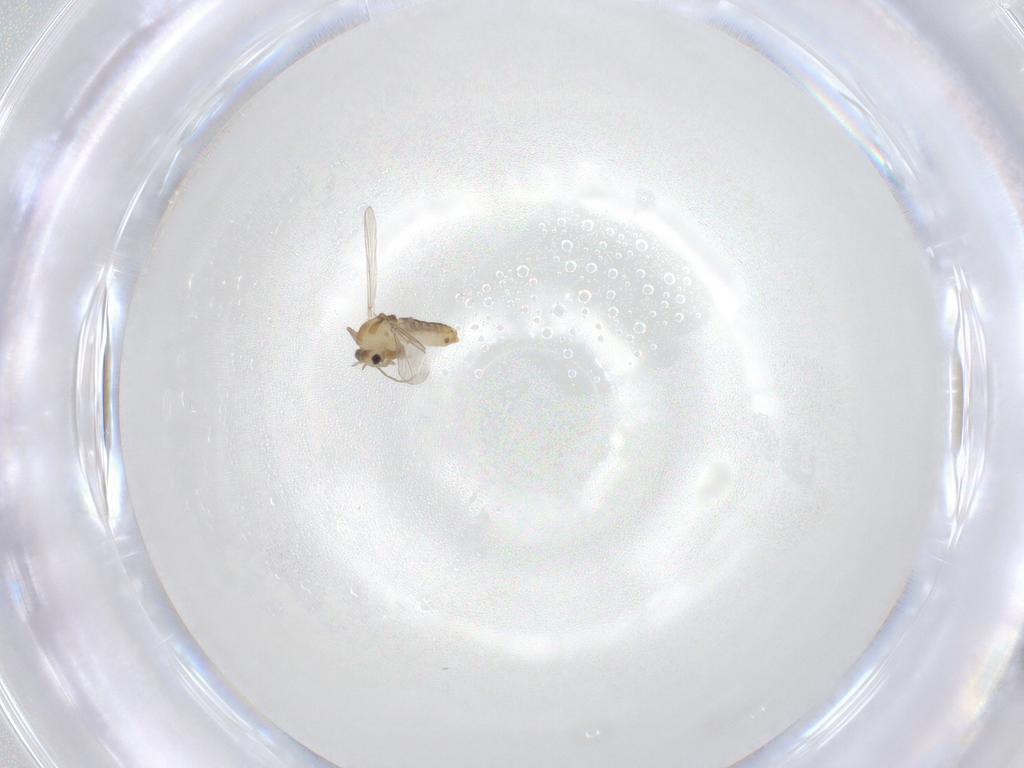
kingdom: Animalia
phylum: Arthropoda
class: Insecta
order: Diptera
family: Chironomidae
